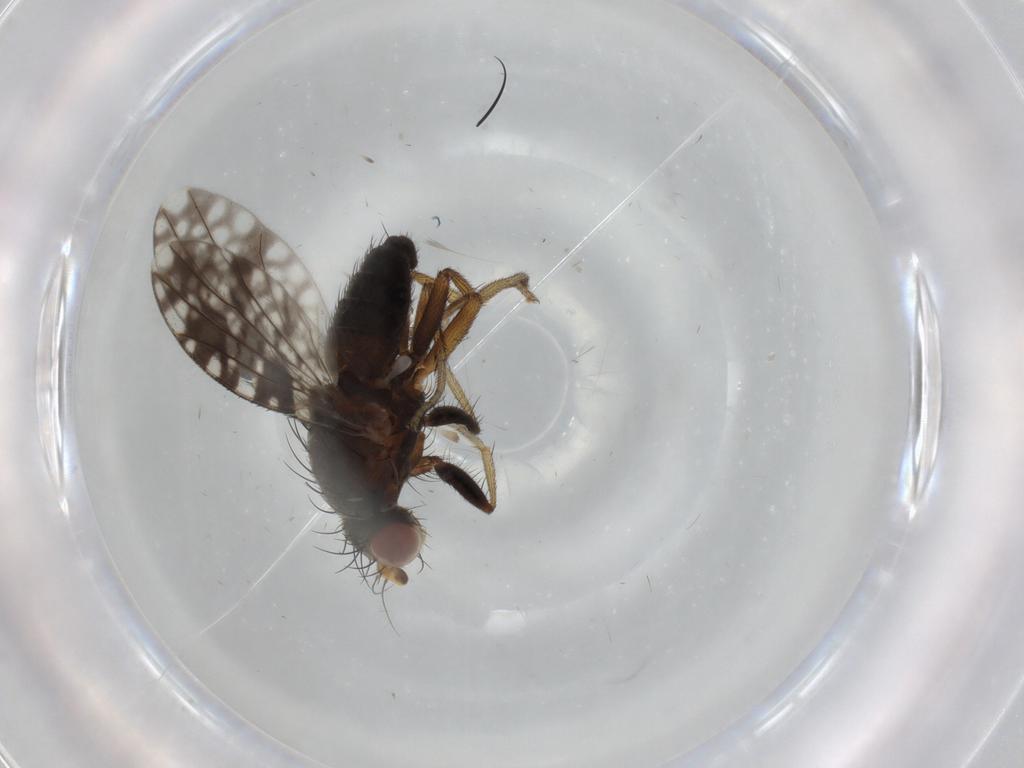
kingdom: Animalia
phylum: Arthropoda
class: Insecta
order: Diptera
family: Tephritidae
